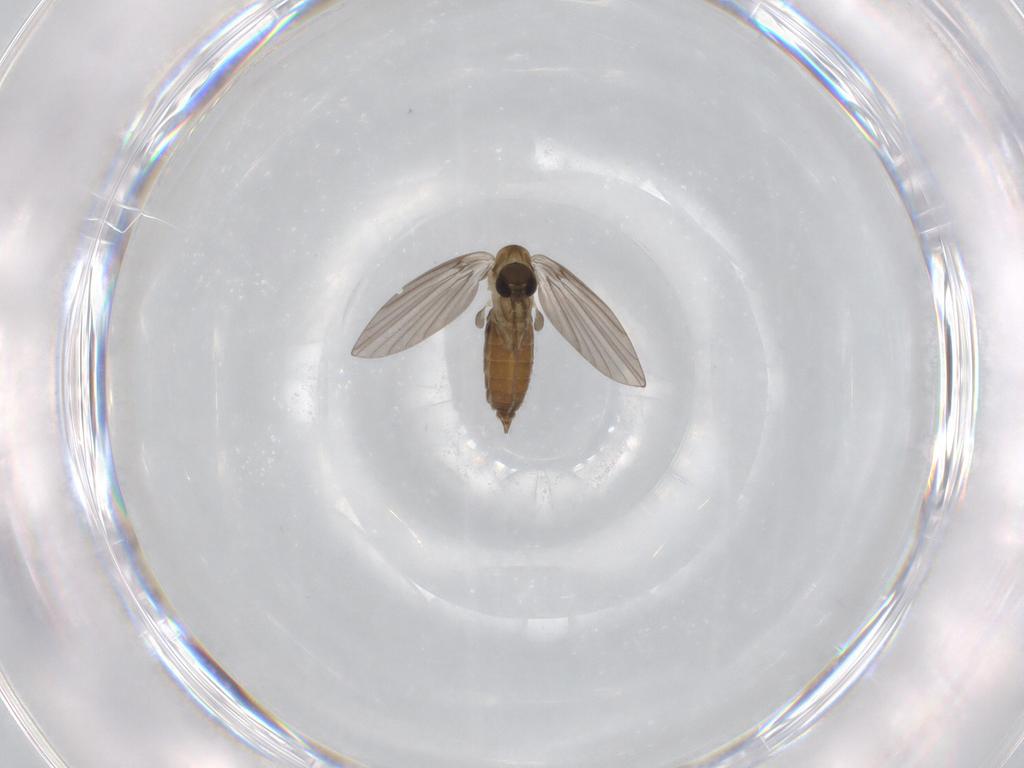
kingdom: Animalia
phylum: Arthropoda
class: Insecta
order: Diptera
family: Cecidomyiidae
